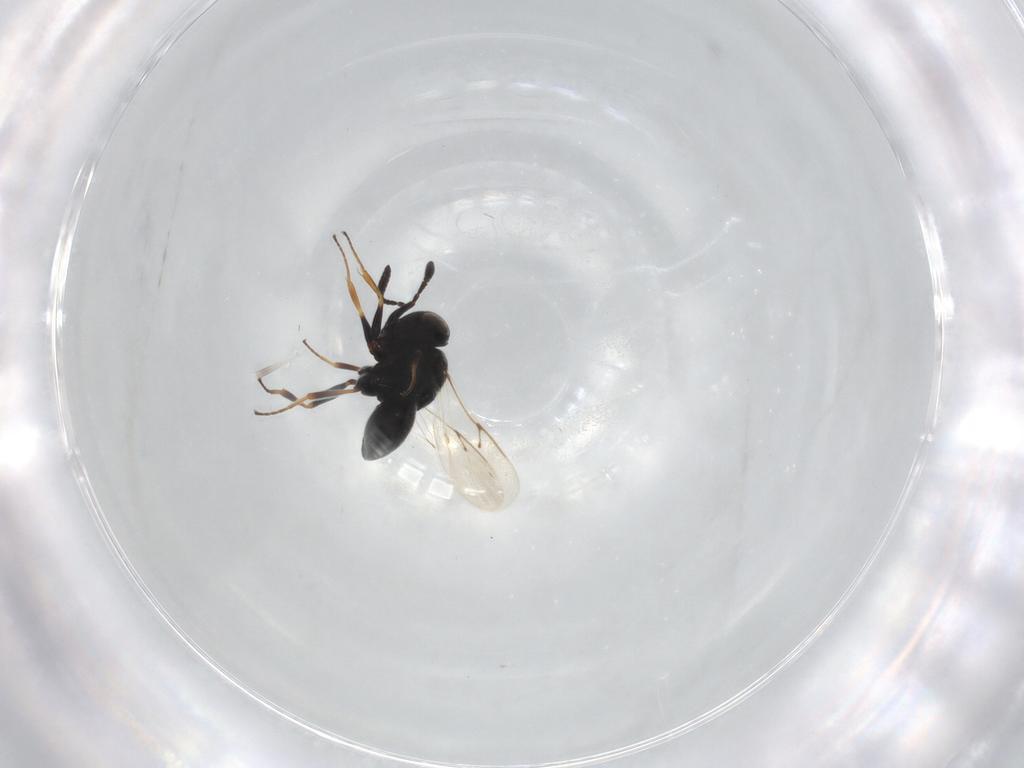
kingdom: Animalia
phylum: Arthropoda
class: Insecta
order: Hymenoptera
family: Scelionidae
